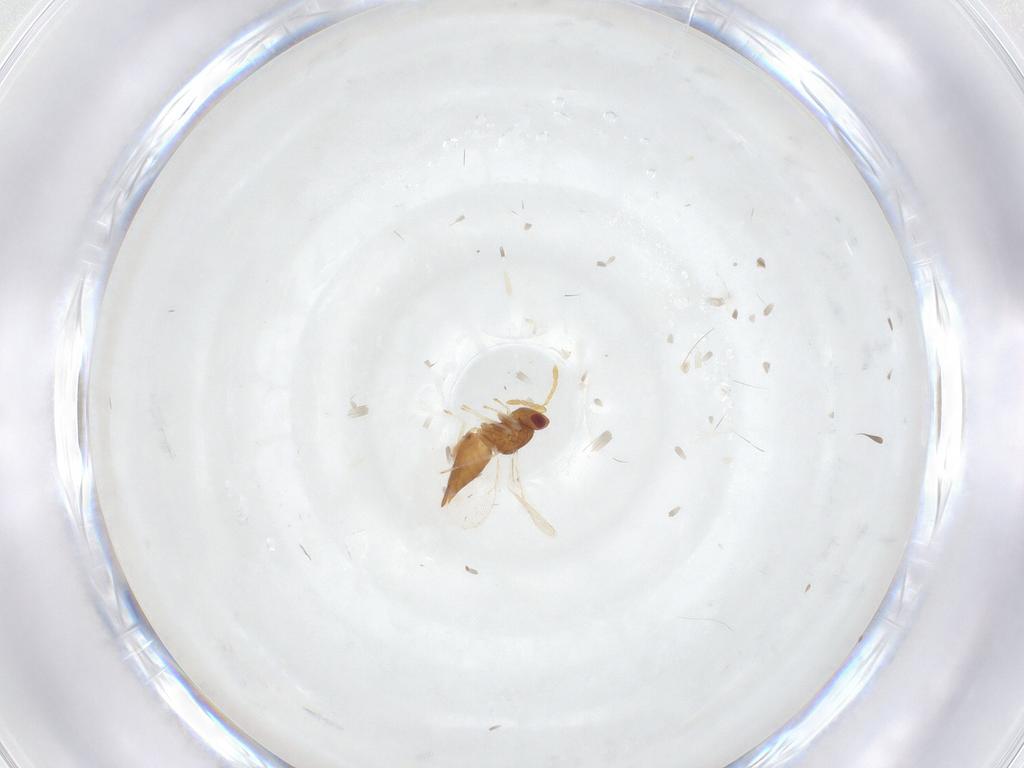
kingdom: Animalia
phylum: Arthropoda
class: Insecta
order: Hymenoptera
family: Eulophidae
